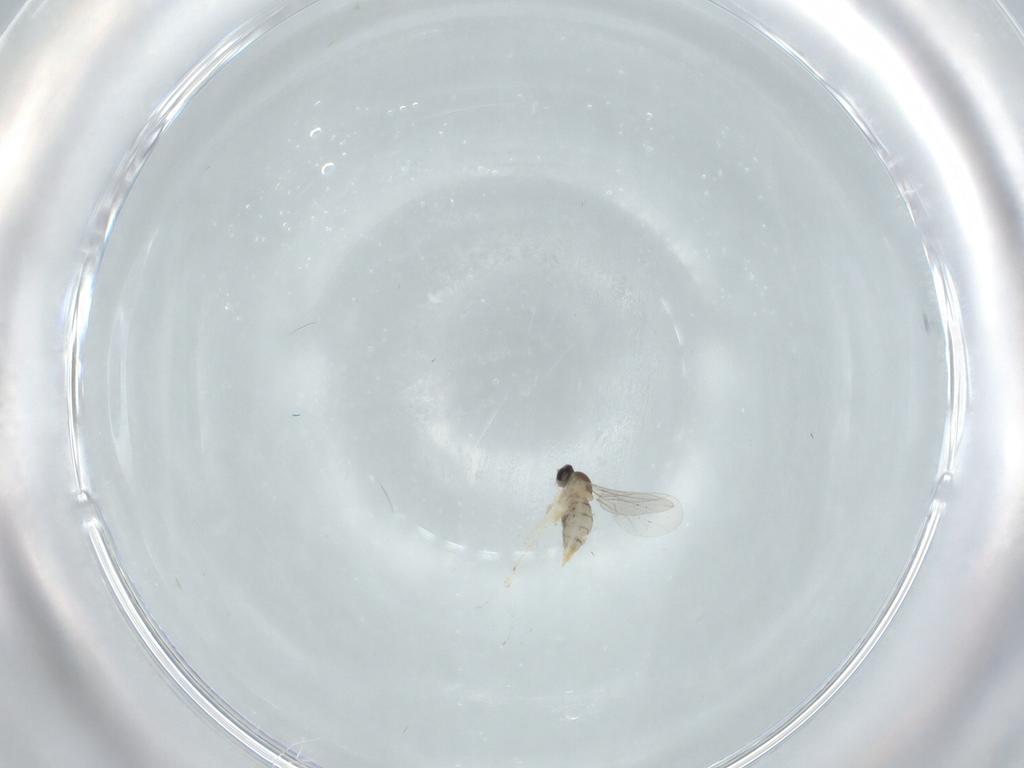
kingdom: Animalia
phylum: Arthropoda
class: Insecta
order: Diptera
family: Cecidomyiidae
